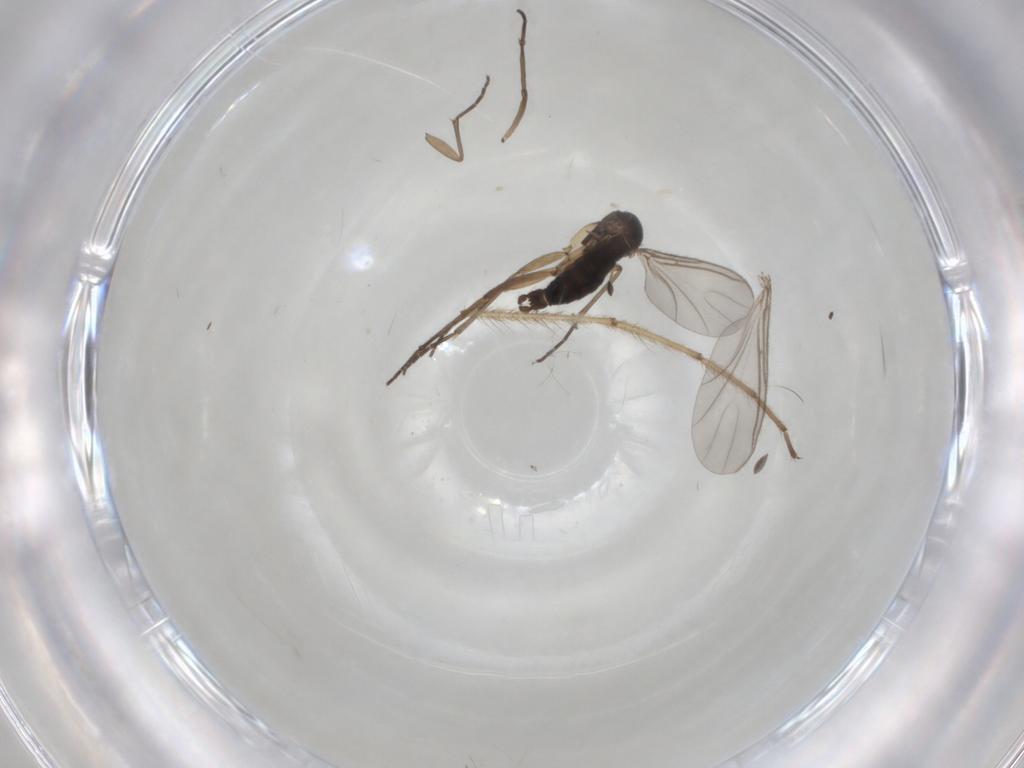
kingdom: Animalia
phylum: Arthropoda
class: Insecta
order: Diptera
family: Chironomidae
